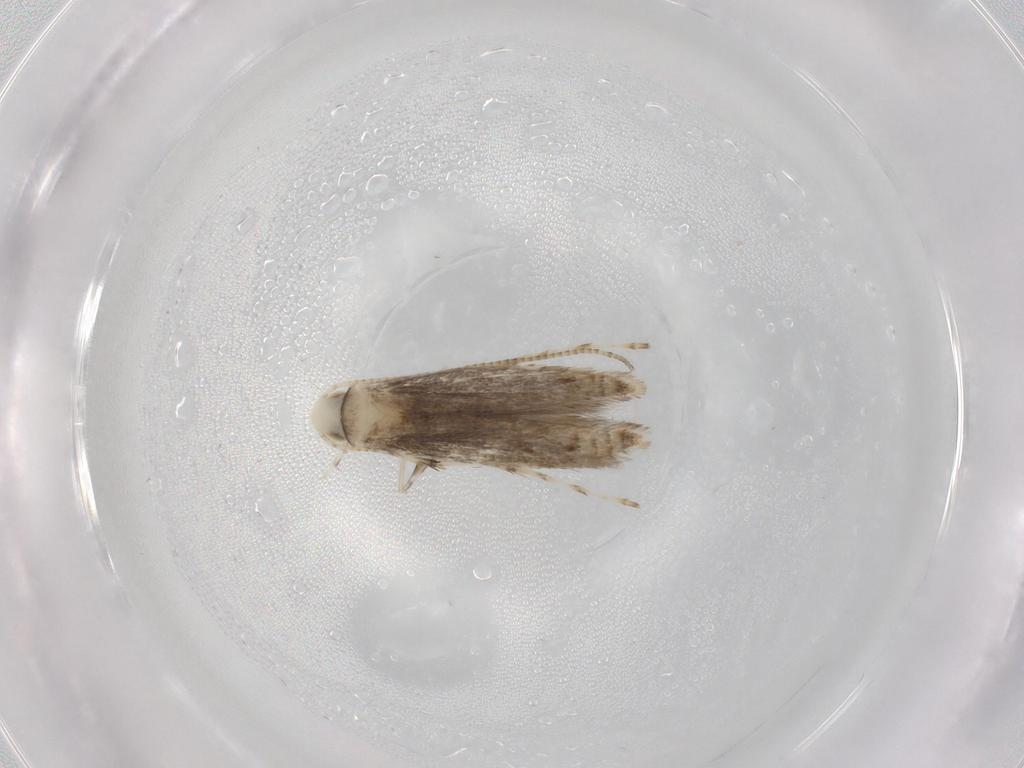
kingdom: Animalia
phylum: Arthropoda
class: Insecta
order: Lepidoptera
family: Gracillariidae
